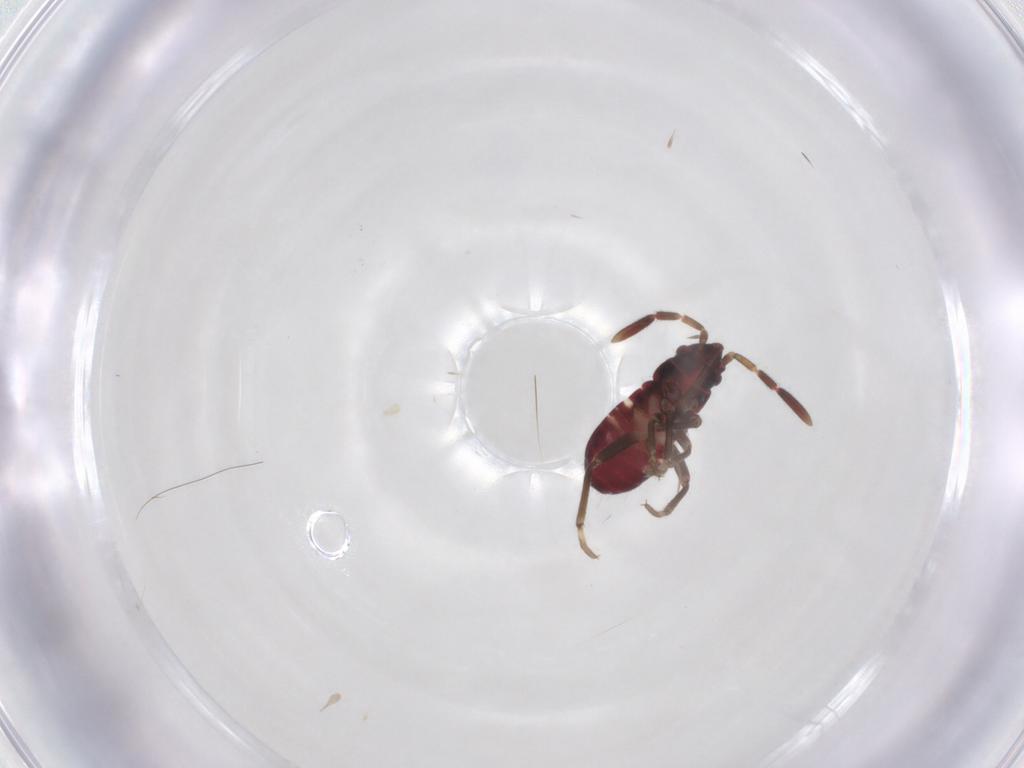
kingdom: Animalia
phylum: Arthropoda
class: Insecta
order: Hemiptera
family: Rhyparochromidae
